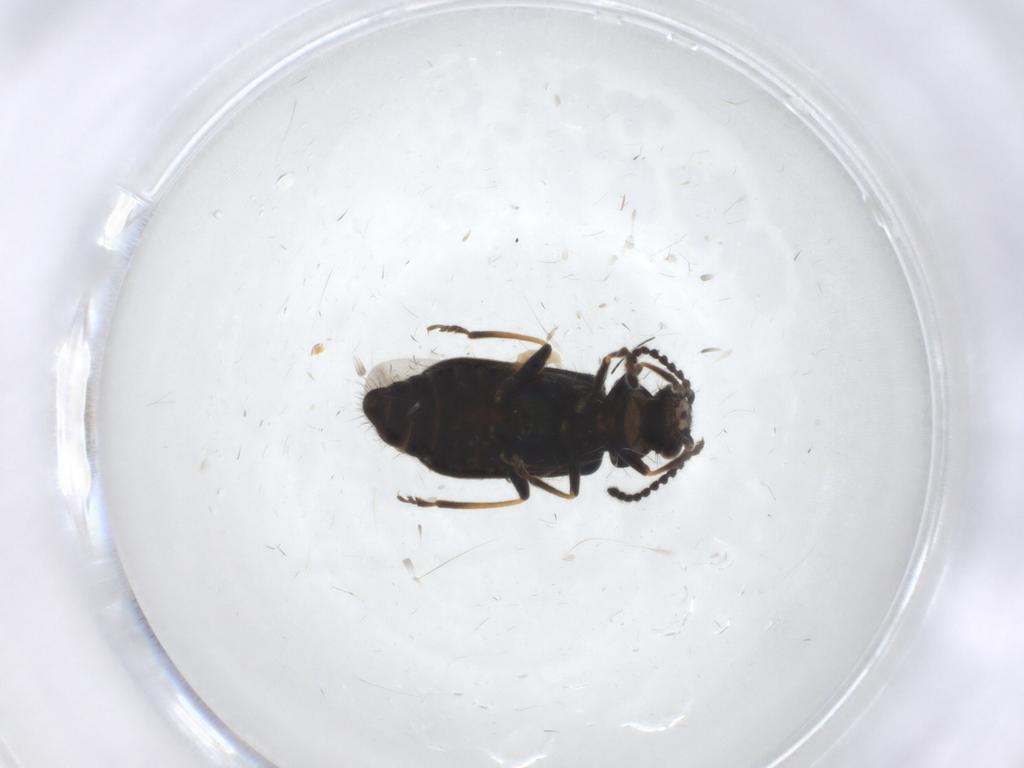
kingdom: Animalia
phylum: Arthropoda
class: Insecta
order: Coleoptera
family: Melyridae
